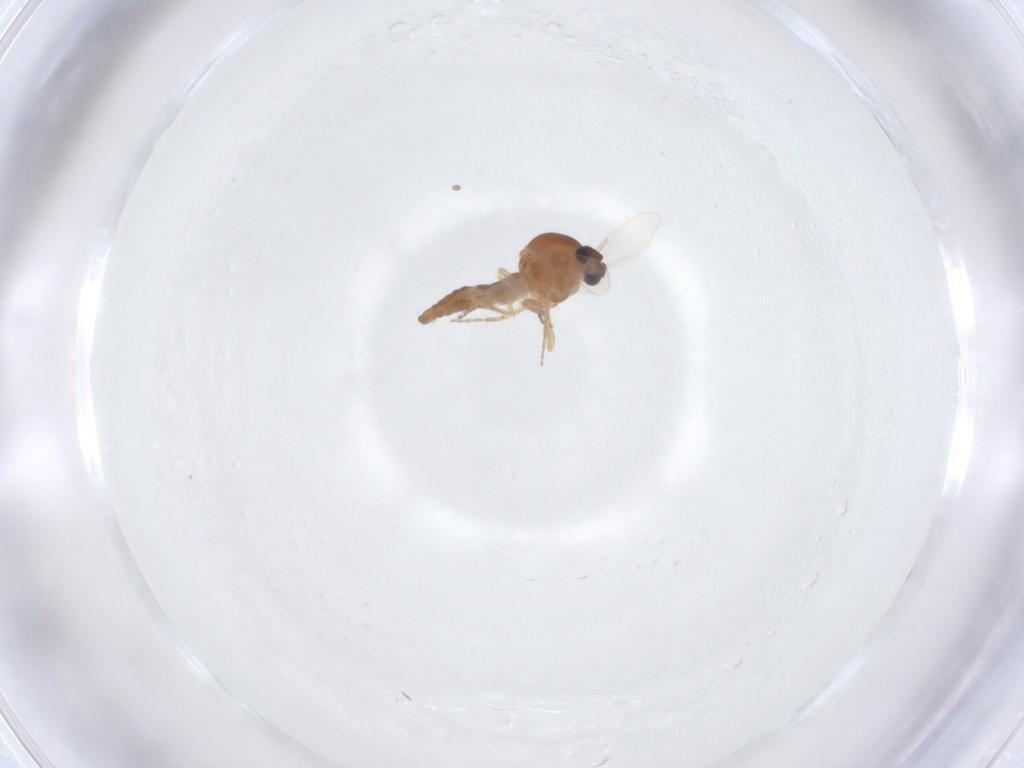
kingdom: Animalia
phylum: Arthropoda
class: Insecta
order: Diptera
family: Ceratopogonidae
